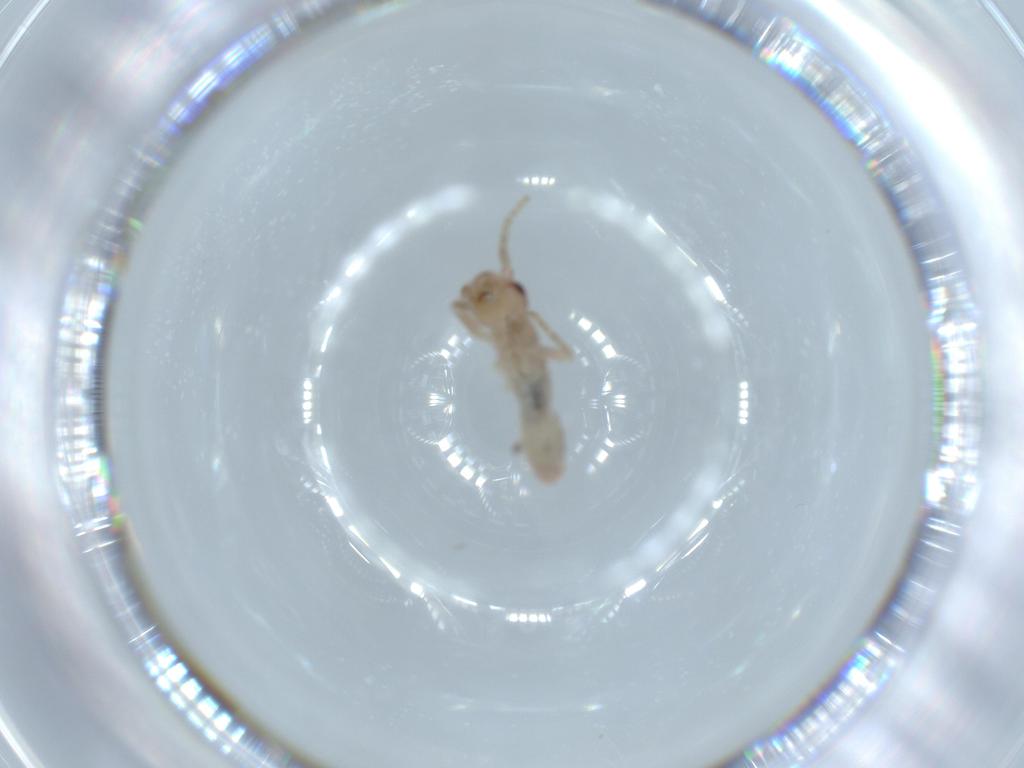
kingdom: Animalia
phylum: Arthropoda
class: Insecta
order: Orthoptera
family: Mogoplistidae
